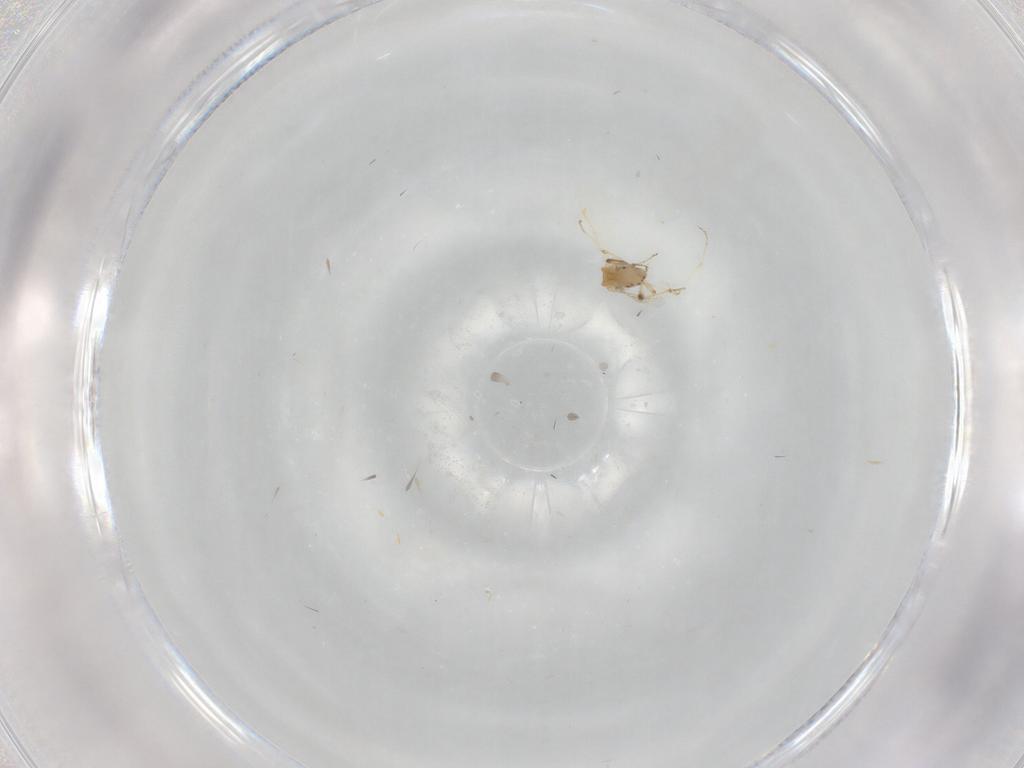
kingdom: Animalia
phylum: Arthropoda
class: Insecta
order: Diptera
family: Ceratopogonidae
